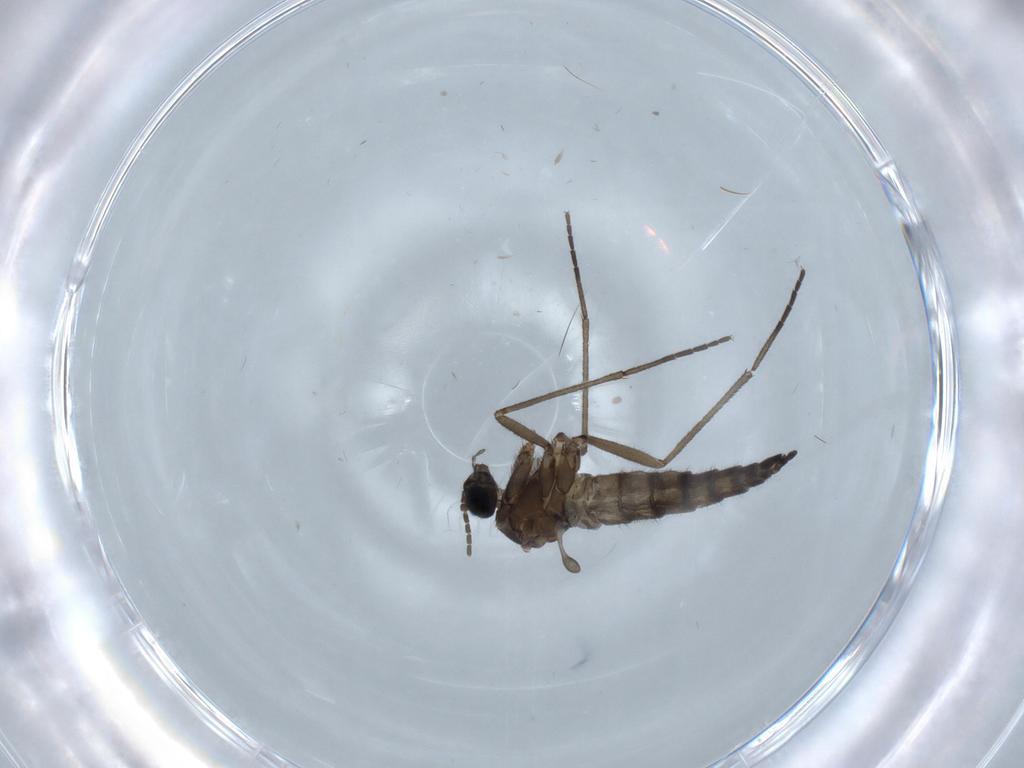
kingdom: Animalia
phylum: Arthropoda
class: Insecta
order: Diptera
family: Sciaridae
